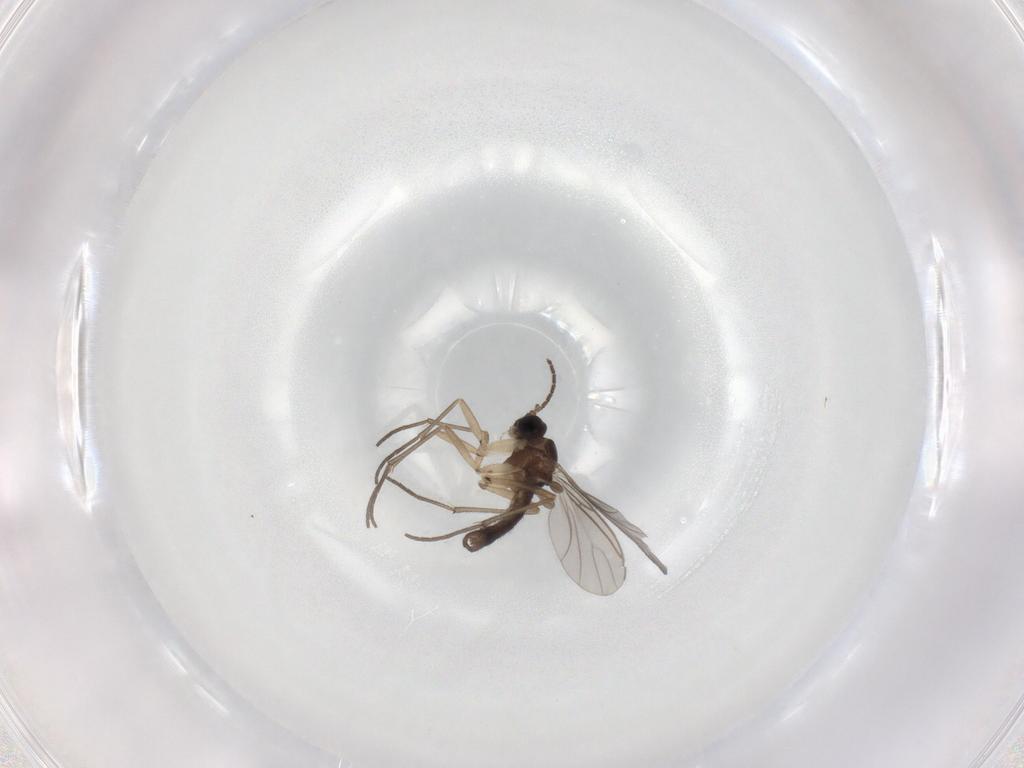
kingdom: Animalia
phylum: Arthropoda
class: Insecta
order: Diptera
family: Sciaridae
